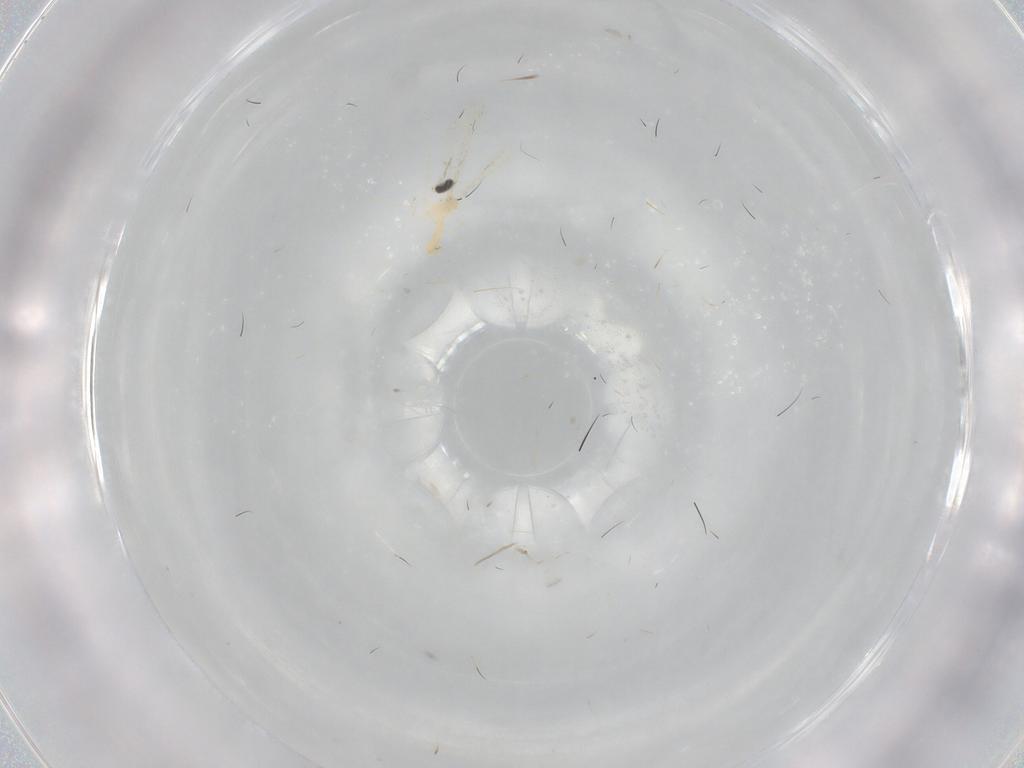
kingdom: Animalia
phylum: Arthropoda
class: Insecta
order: Diptera
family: Cecidomyiidae
